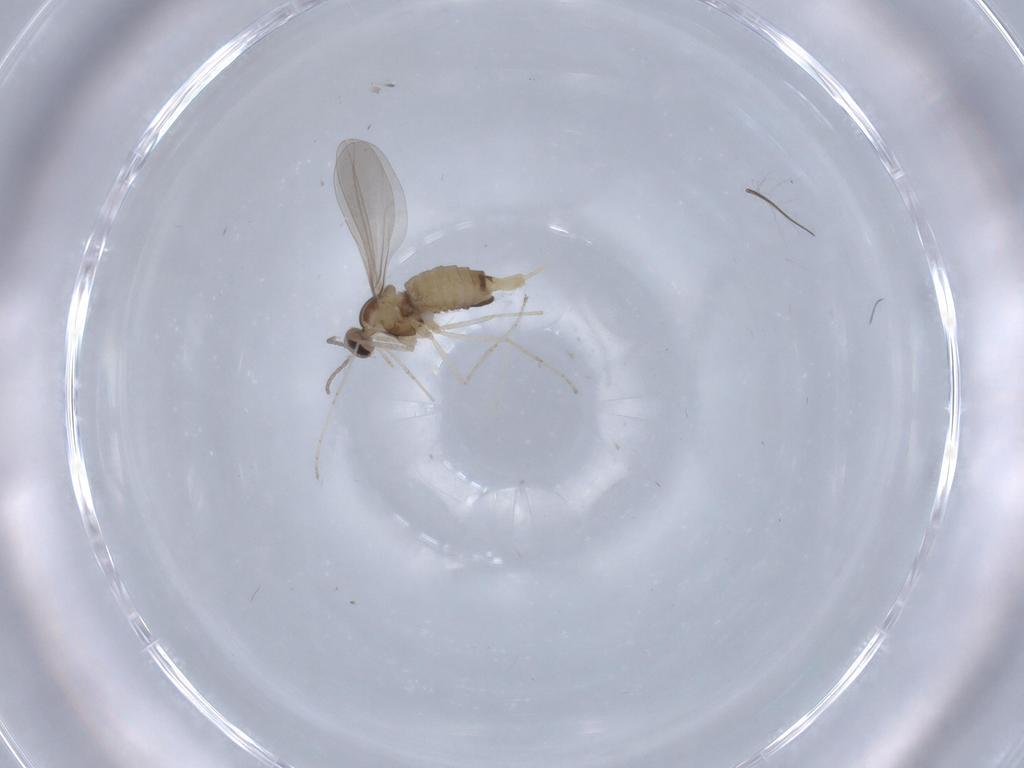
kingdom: Animalia
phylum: Arthropoda
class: Insecta
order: Diptera
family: Cecidomyiidae
